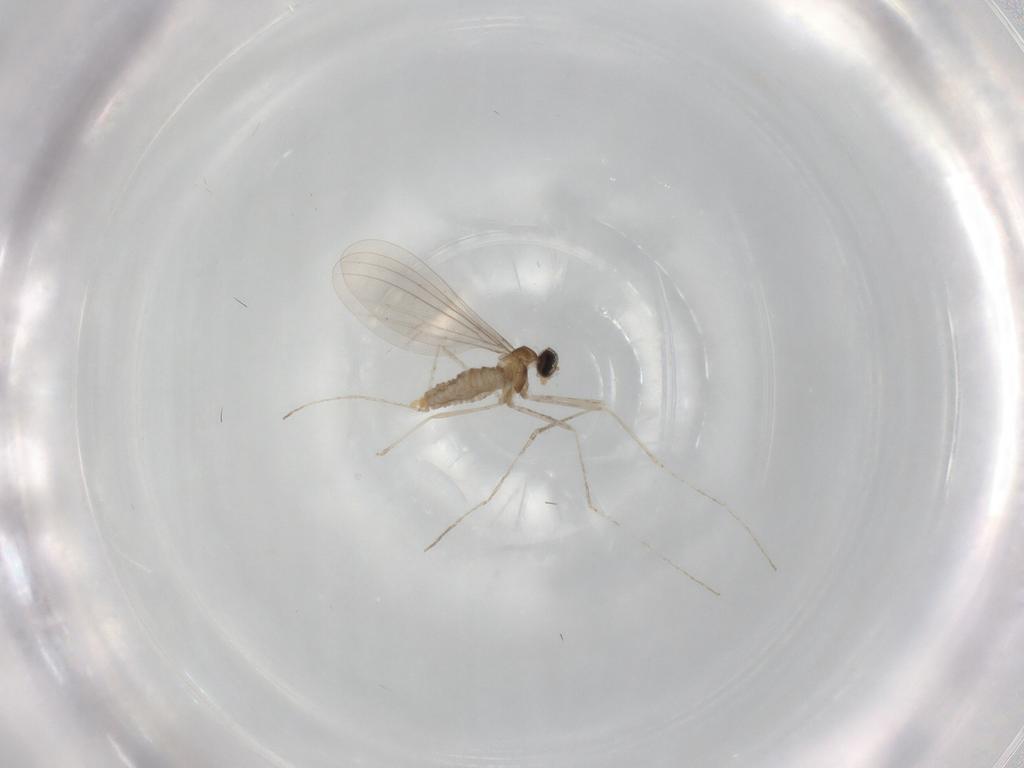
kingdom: Animalia
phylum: Arthropoda
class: Insecta
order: Diptera
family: Cecidomyiidae
